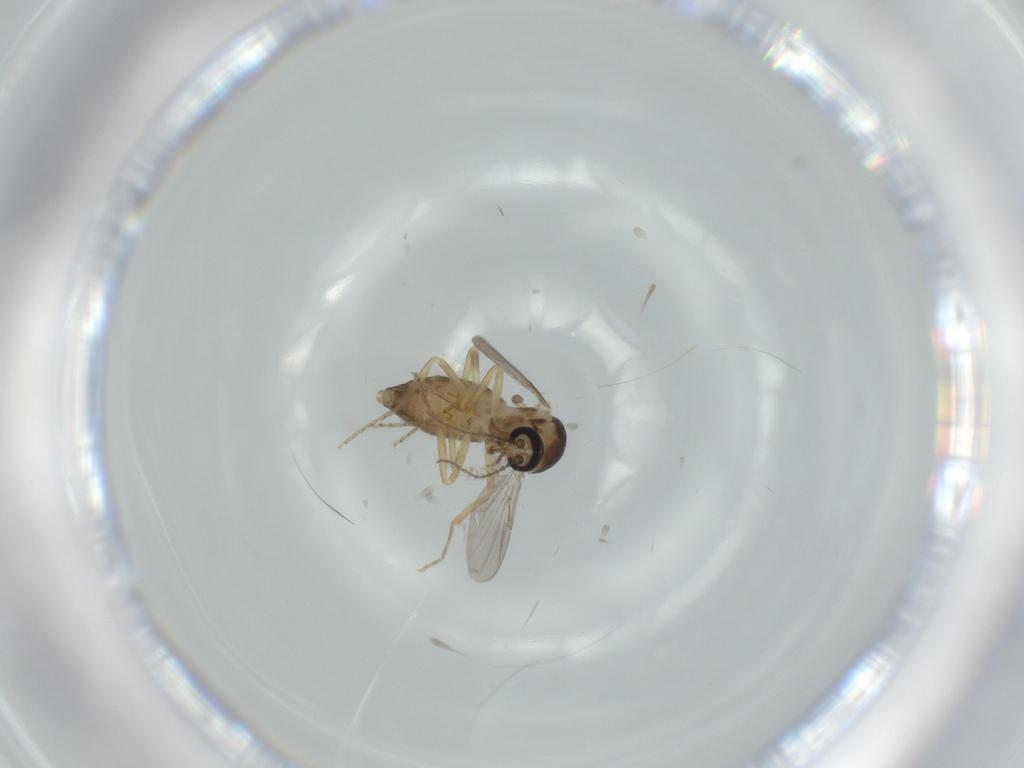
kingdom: Animalia
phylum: Arthropoda
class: Insecta
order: Diptera
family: Ceratopogonidae
